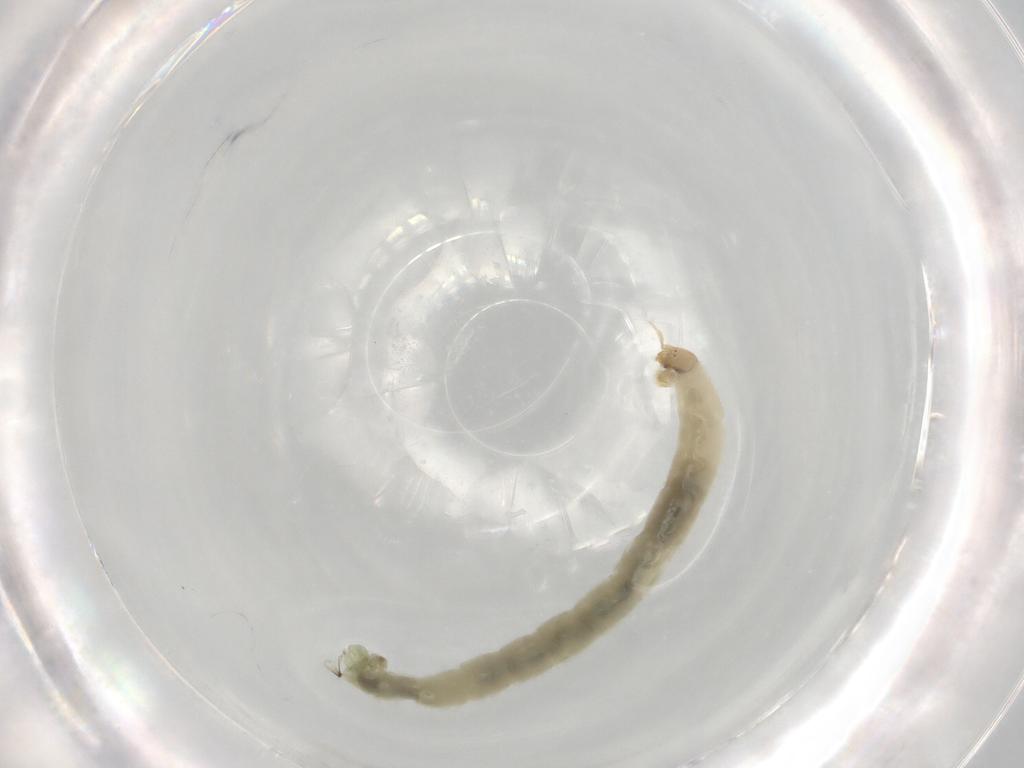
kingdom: Animalia
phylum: Arthropoda
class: Insecta
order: Diptera
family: Chironomidae
